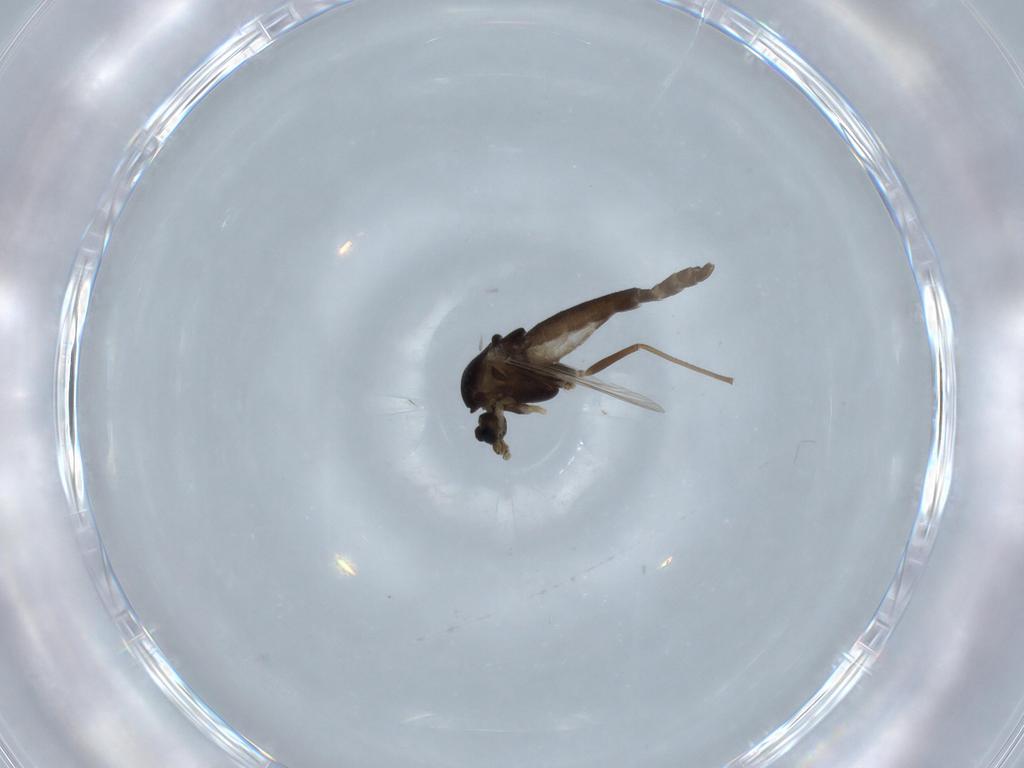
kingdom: Animalia
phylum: Arthropoda
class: Insecta
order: Diptera
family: Chironomidae
